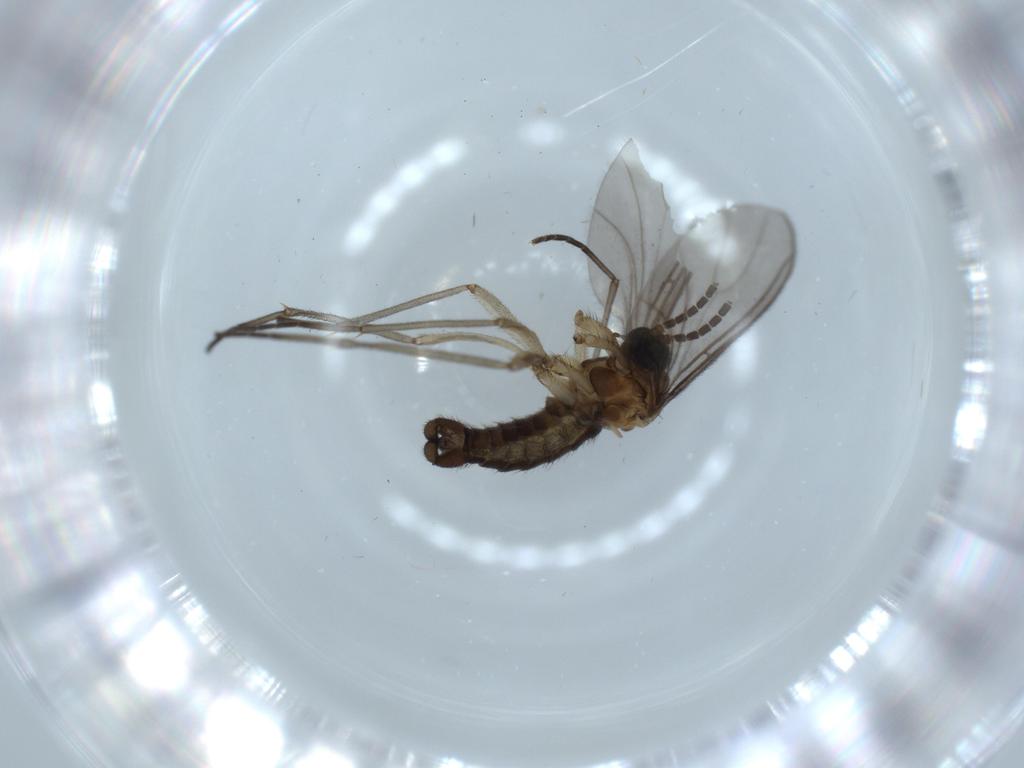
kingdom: Animalia
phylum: Arthropoda
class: Insecta
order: Diptera
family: Sciaridae
